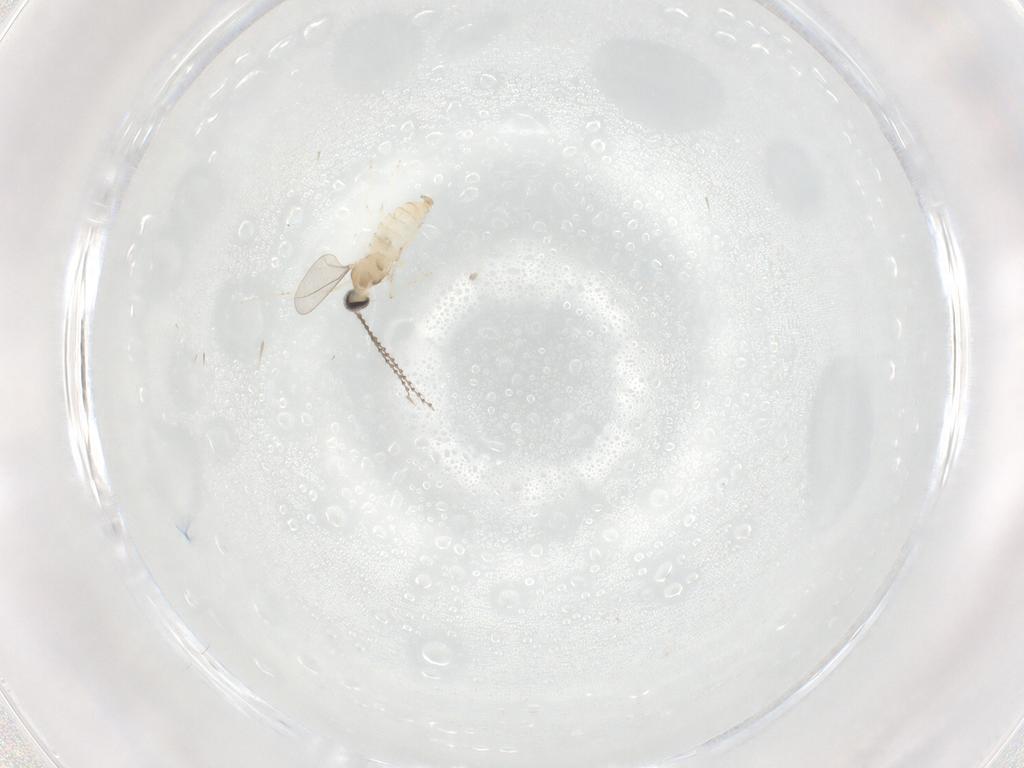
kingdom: Animalia
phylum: Arthropoda
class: Insecta
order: Diptera
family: Cecidomyiidae
